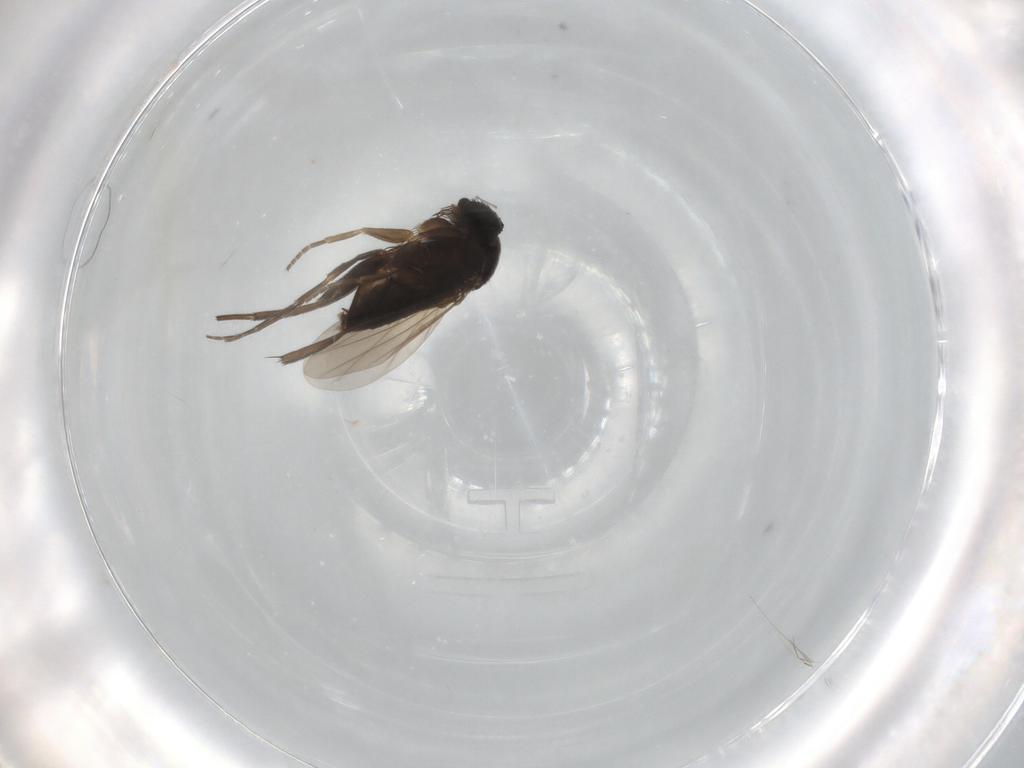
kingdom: Animalia
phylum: Arthropoda
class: Insecta
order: Diptera
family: Phoridae
